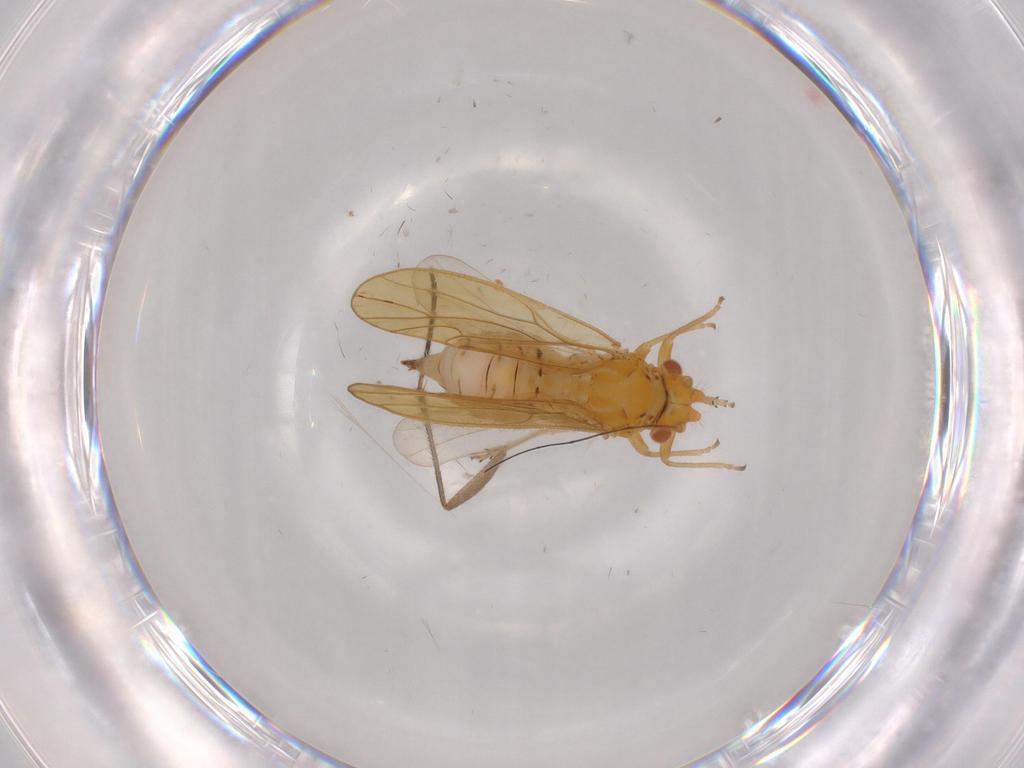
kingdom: Animalia
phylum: Arthropoda
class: Insecta
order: Hemiptera
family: Psyllidae
